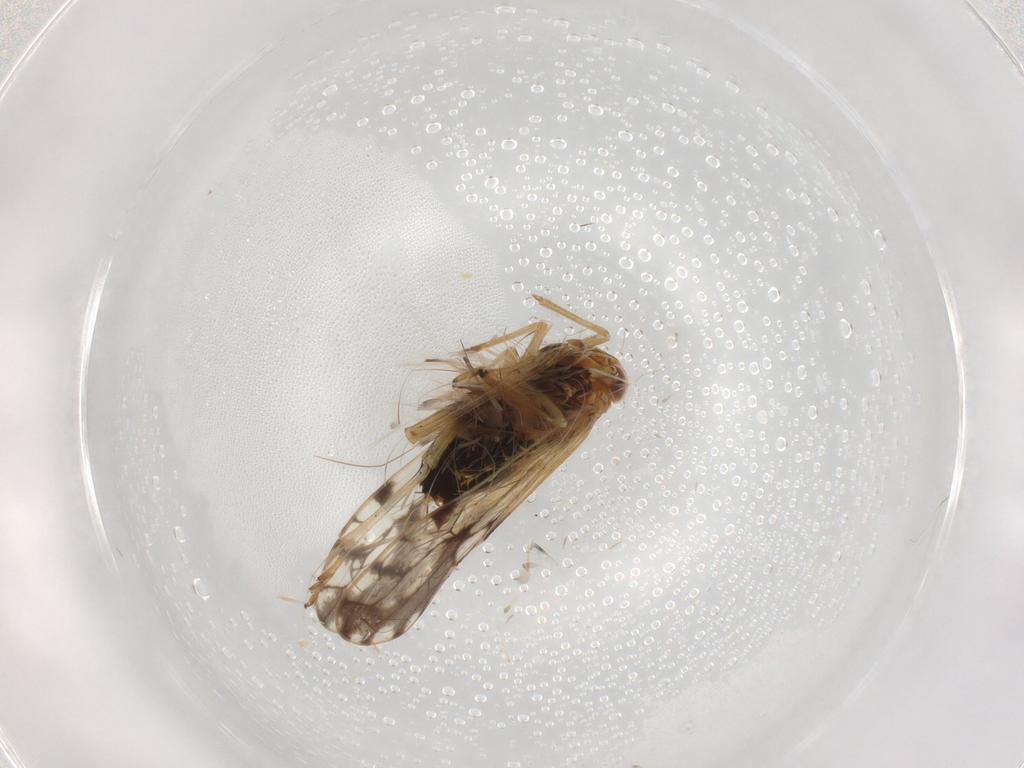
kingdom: Animalia
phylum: Arthropoda
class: Insecta
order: Hemiptera
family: Delphacidae
